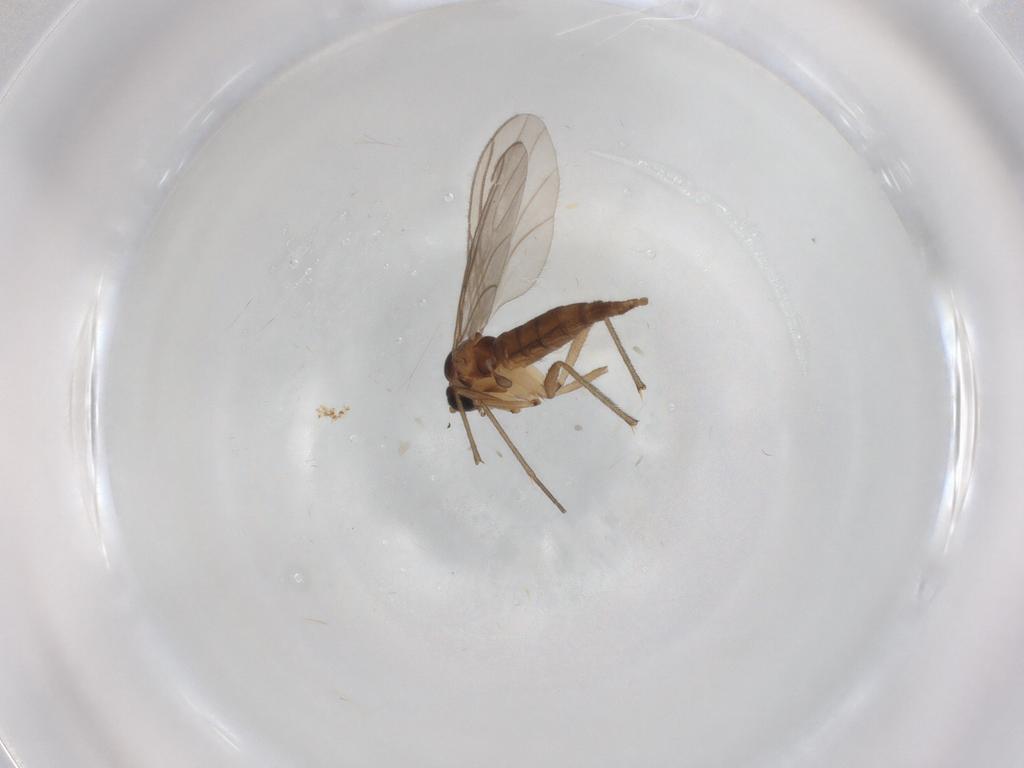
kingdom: Animalia
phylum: Arthropoda
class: Insecta
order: Diptera
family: Sciaridae
